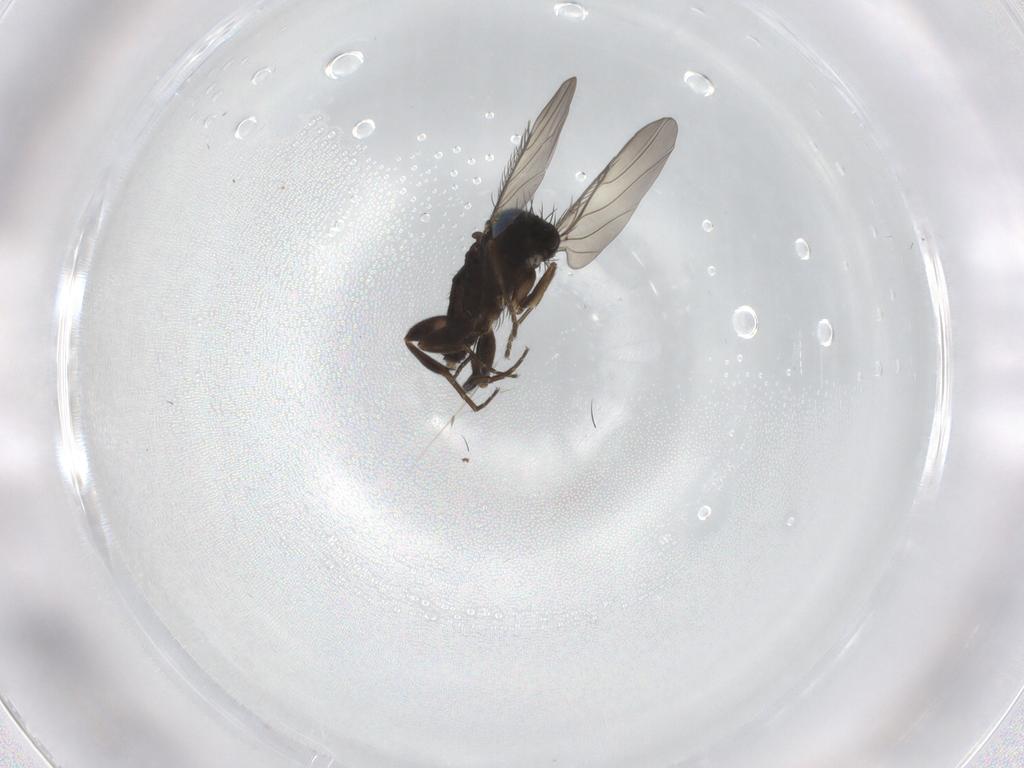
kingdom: Animalia
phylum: Arthropoda
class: Insecta
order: Diptera
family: Phoridae
